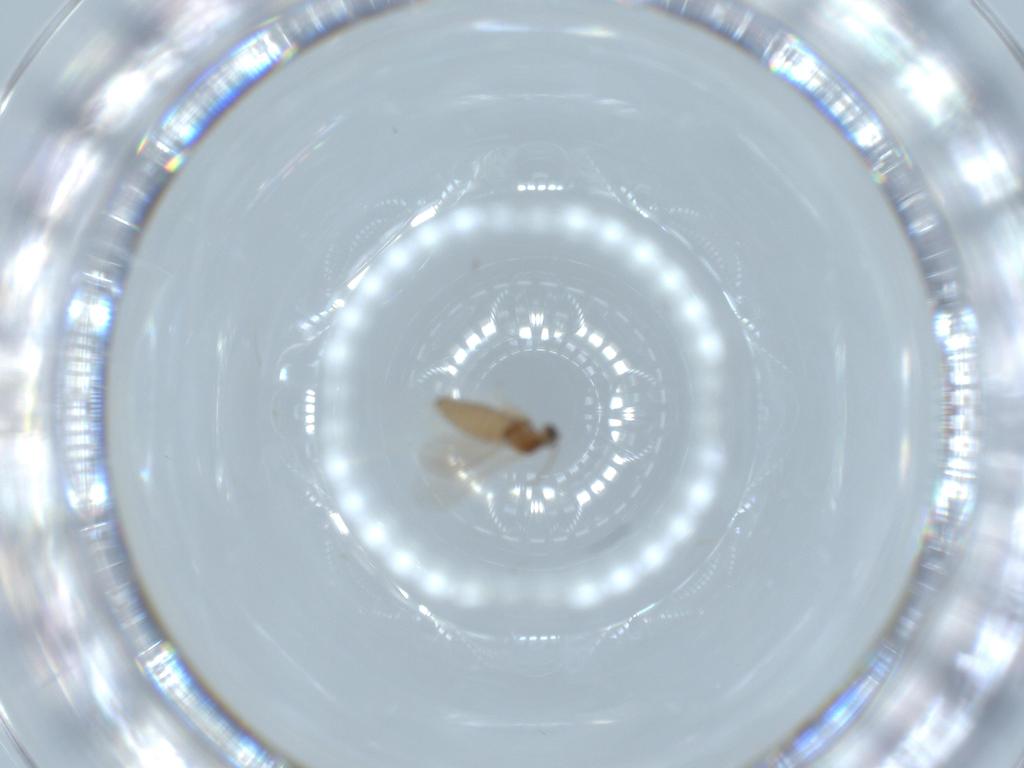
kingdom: Animalia
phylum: Arthropoda
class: Insecta
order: Diptera
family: Cecidomyiidae
